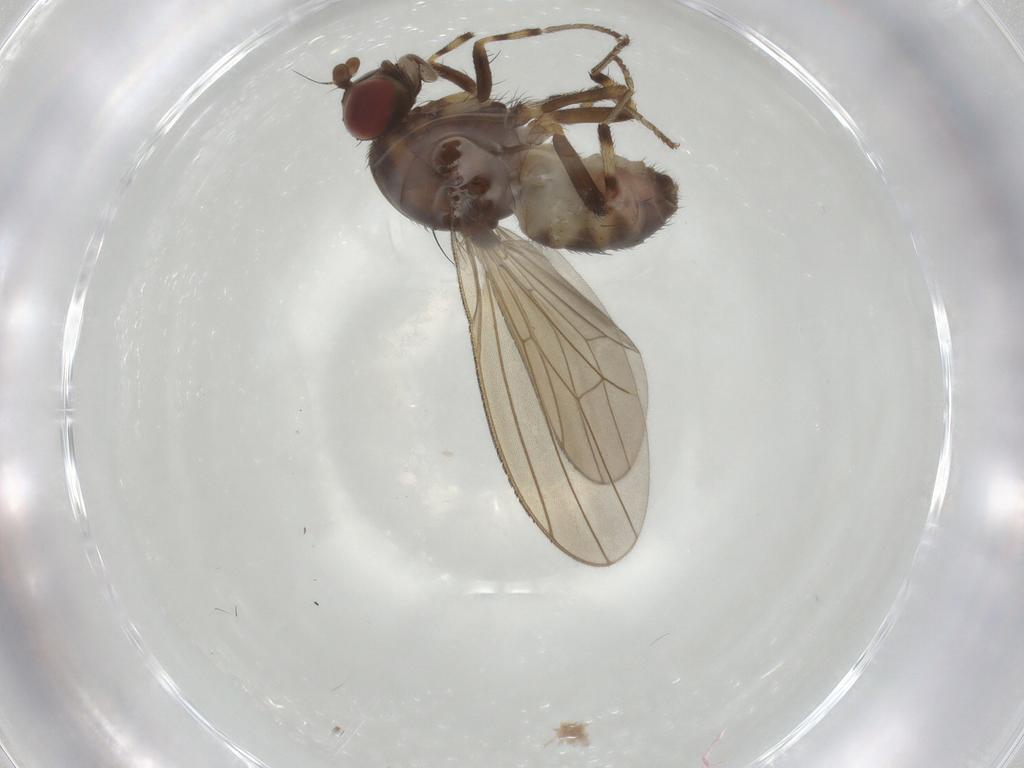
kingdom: Animalia
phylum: Arthropoda
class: Insecta
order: Diptera
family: Lauxaniidae
